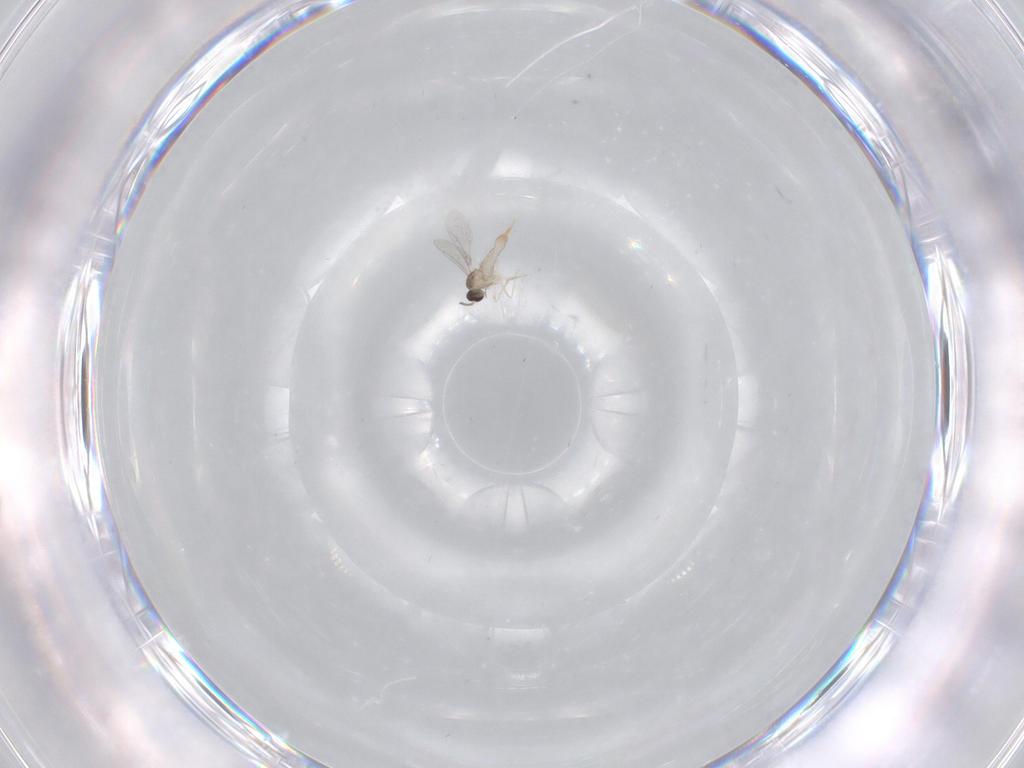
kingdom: Animalia
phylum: Arthropoda
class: Insecta
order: Diptera
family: Cecidomyiidae
